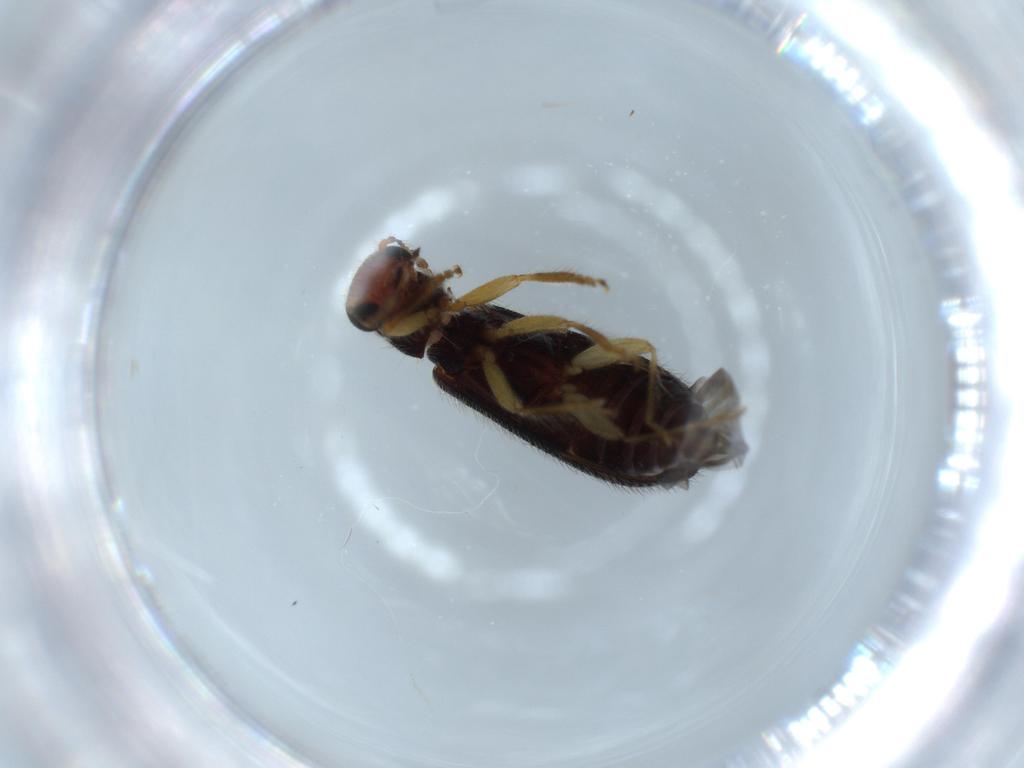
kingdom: Animalia
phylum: Arthropoda
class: Insecta
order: Coleoptera
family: Cleridae
